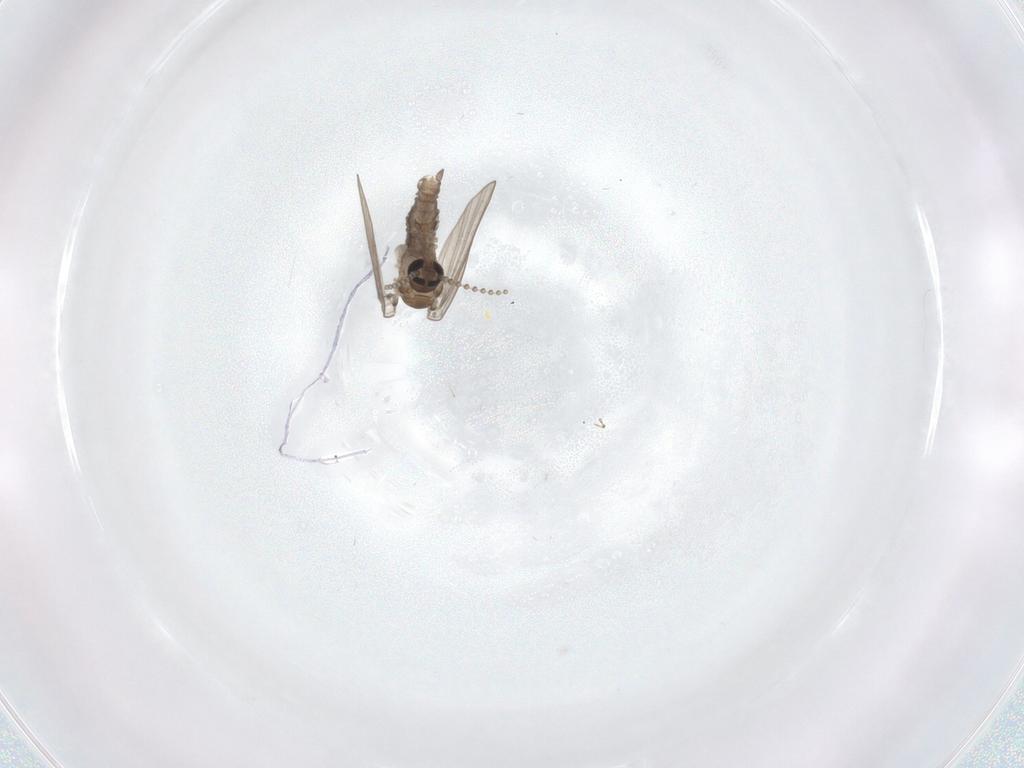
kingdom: Animalia
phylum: Arthropoda
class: Insecta
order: Diptera
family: Psychodidae
